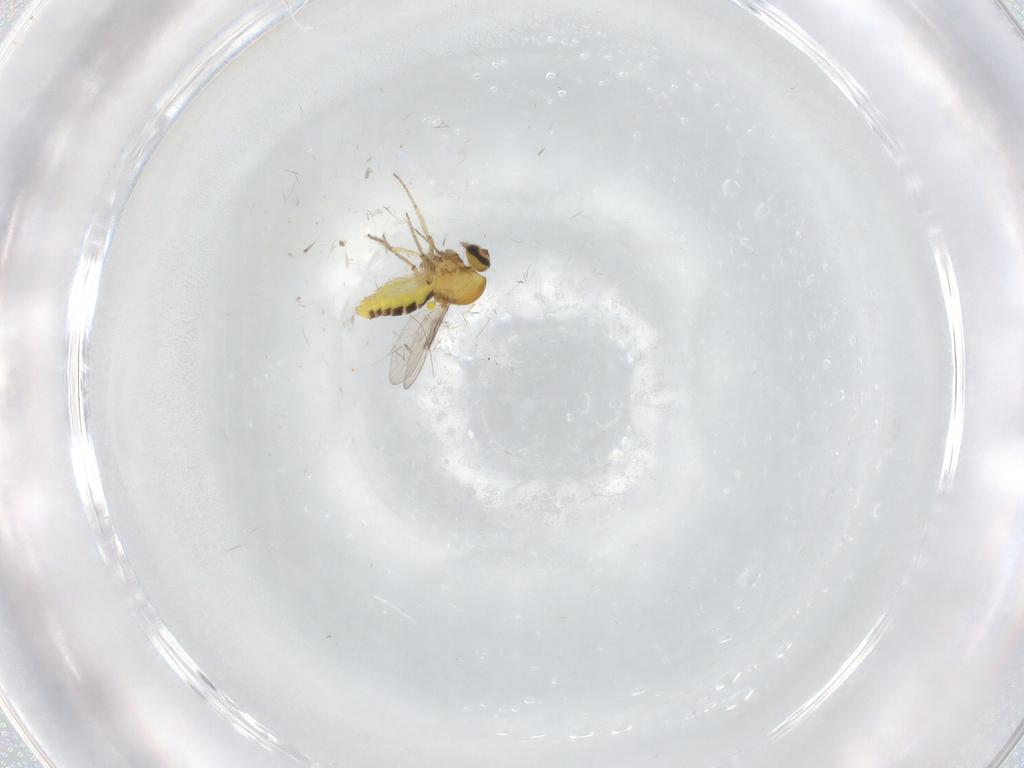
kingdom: Animalia
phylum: Arthropoda
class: Insecta
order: Diptera
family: Ceratopogonidae
